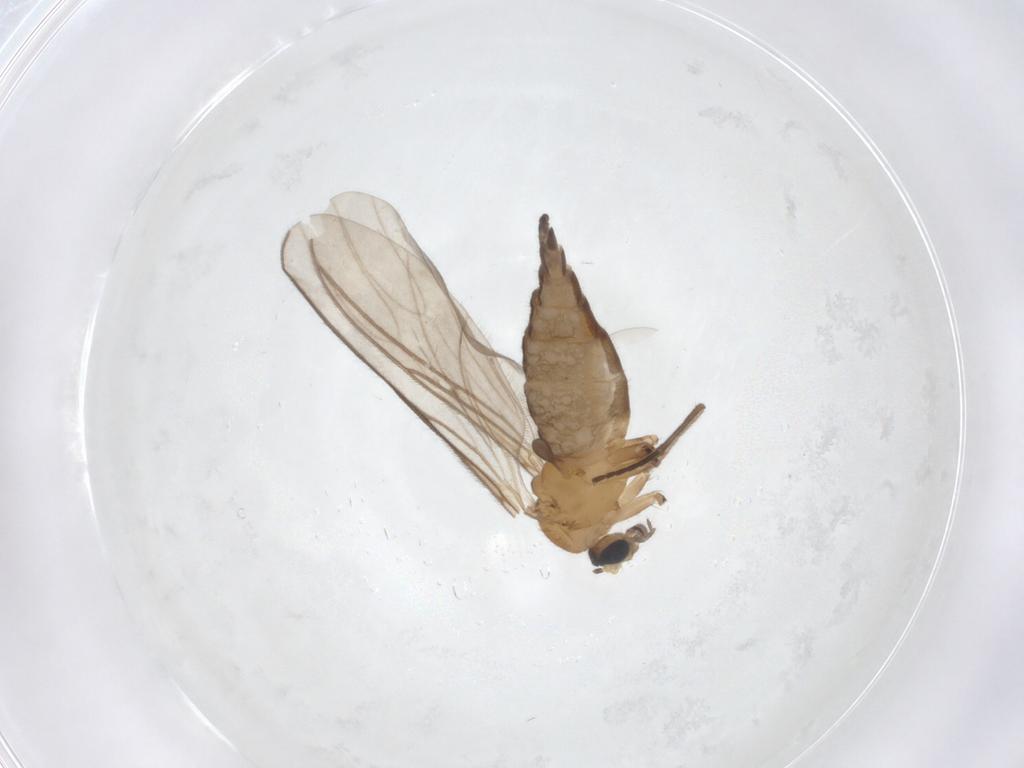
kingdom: Animalia
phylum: Arthropoda
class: Insecta
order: Diptera
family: Sciaridae
